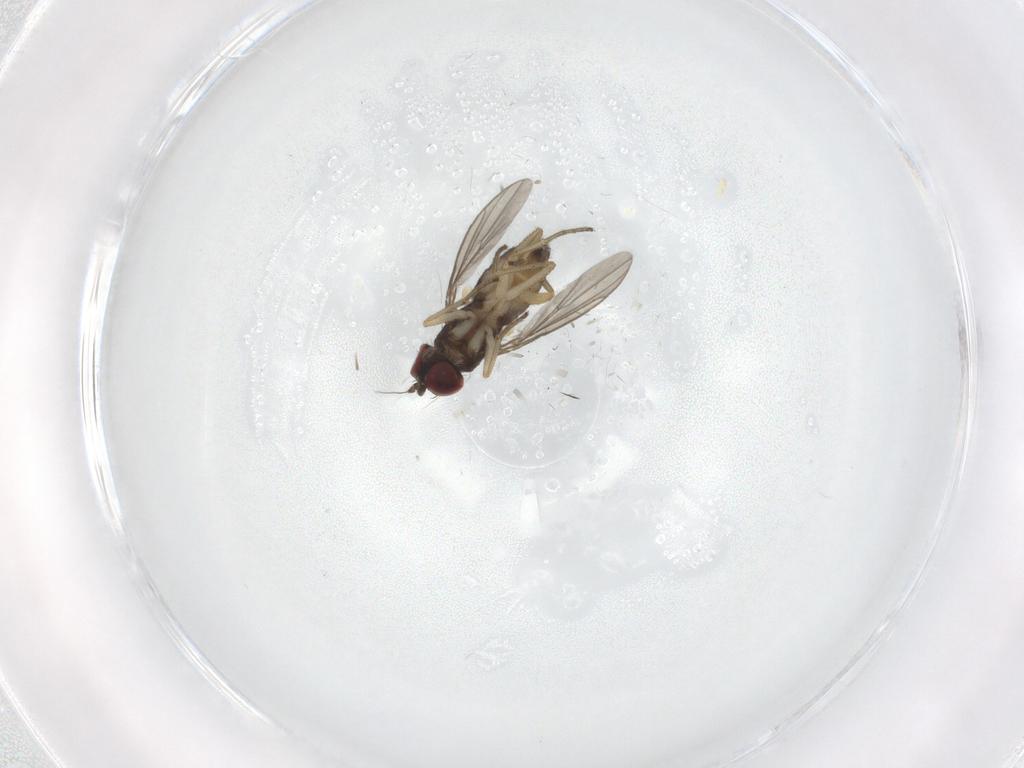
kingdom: Animalia
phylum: Arthropoda
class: Insecta
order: Diptera
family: Dolichopodidae
